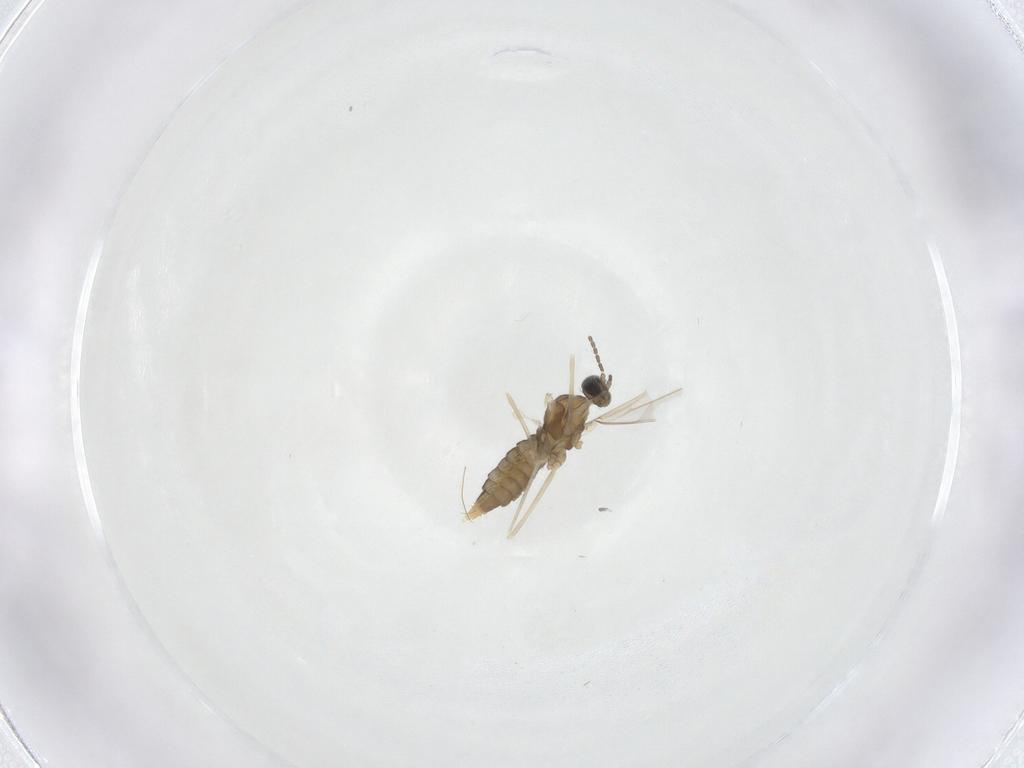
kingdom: Animalia
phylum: Arthropoda
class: Insecta
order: Diptera
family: Cecidomyiidae
